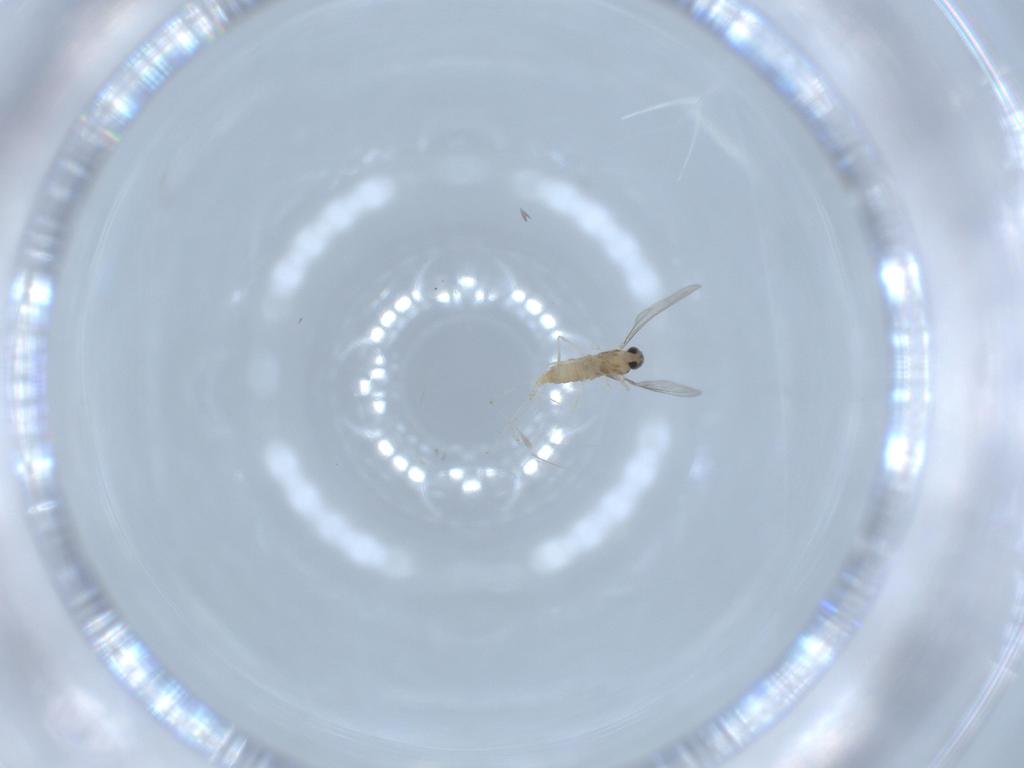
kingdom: Animalia
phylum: Arthropoda
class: Insecta
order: Diptera
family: Cecidomyiidae
